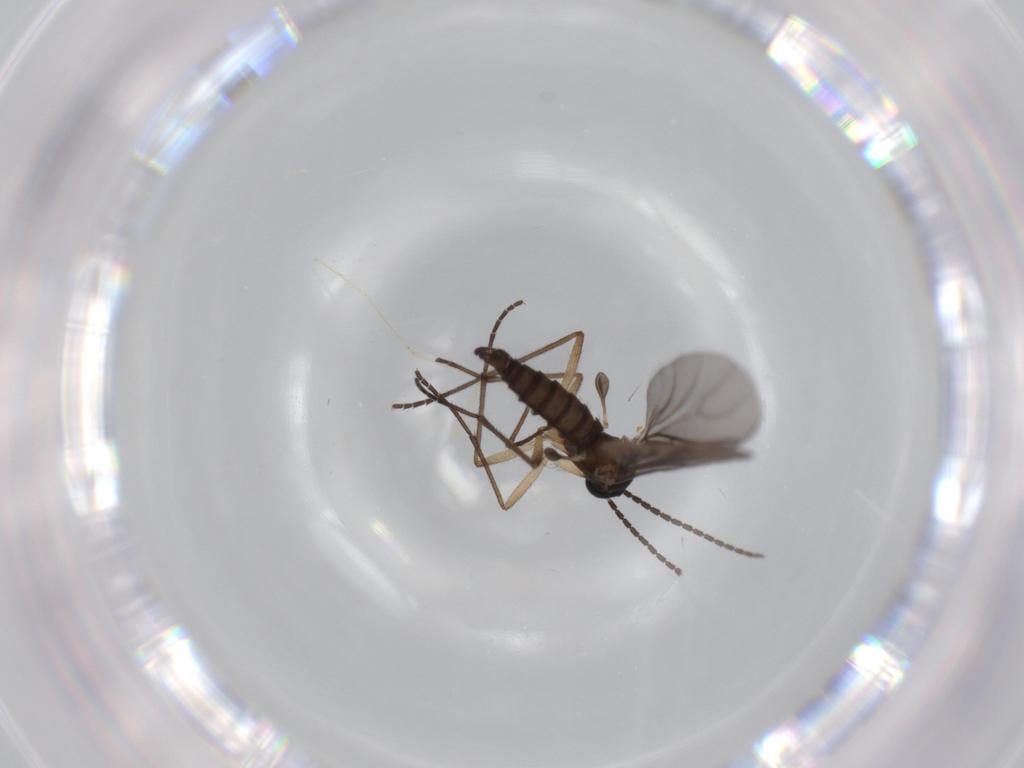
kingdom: Animalia
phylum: Arthropoda
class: Insecta
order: Diptera
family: Sciaridae
